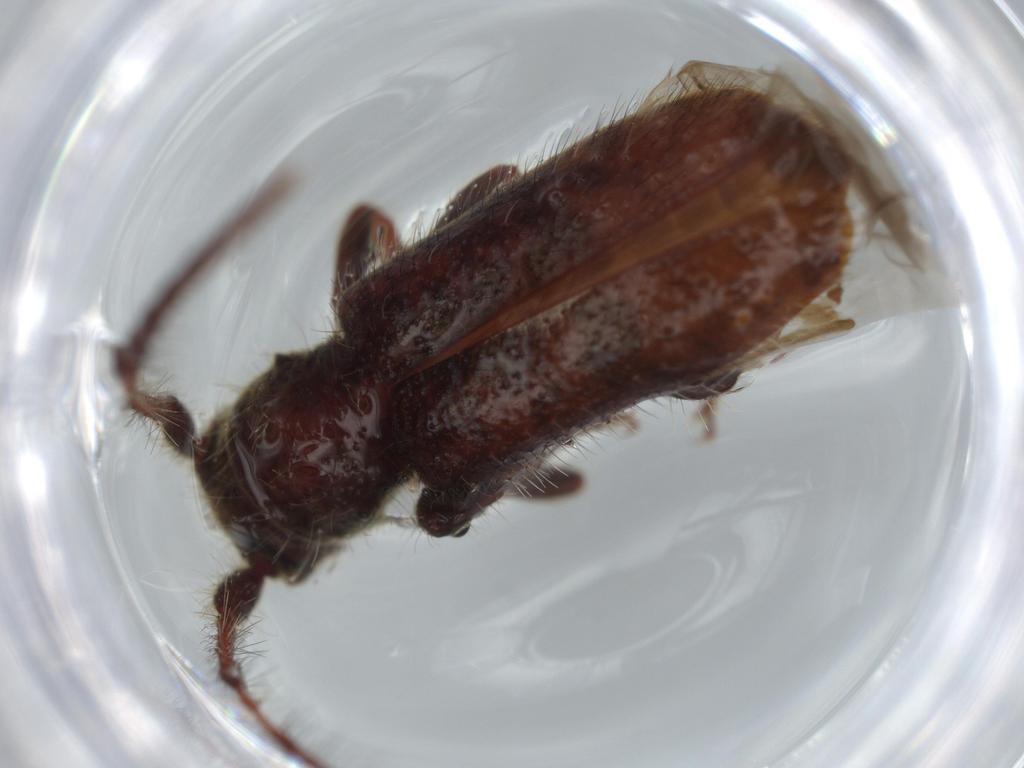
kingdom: Animalia
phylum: Arthropoda
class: Insecta
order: Coleoptera
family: Cerambycidae
